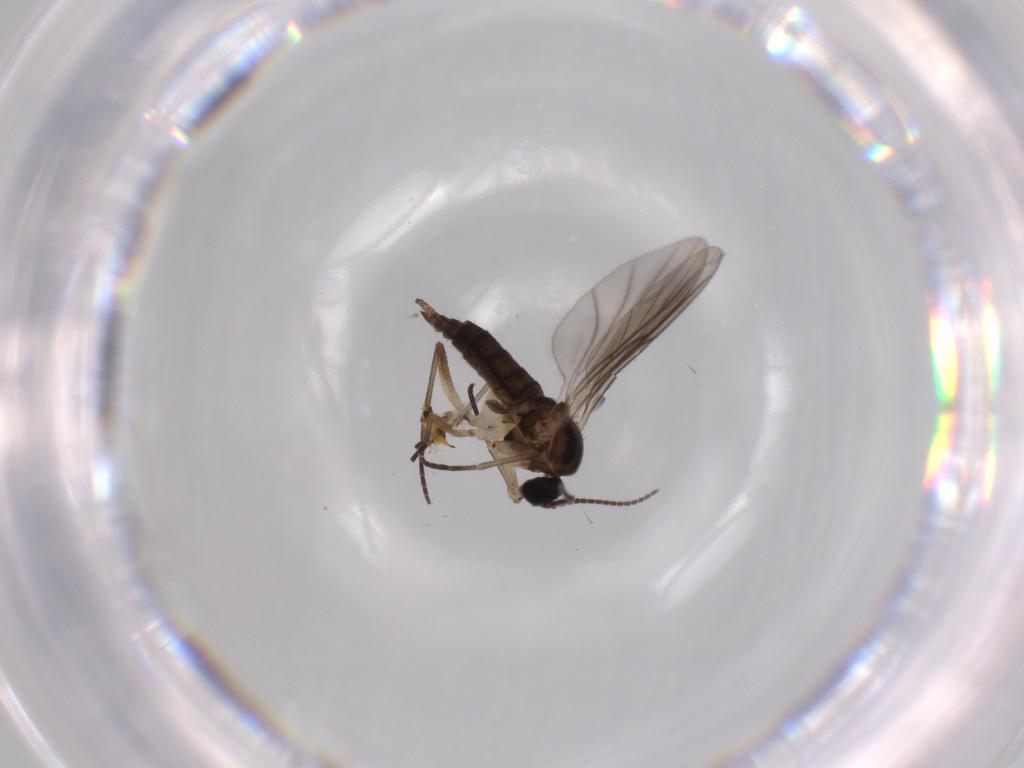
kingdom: Animalia
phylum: Arthropoda
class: Insecta
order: Diptera
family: Sciaridae
